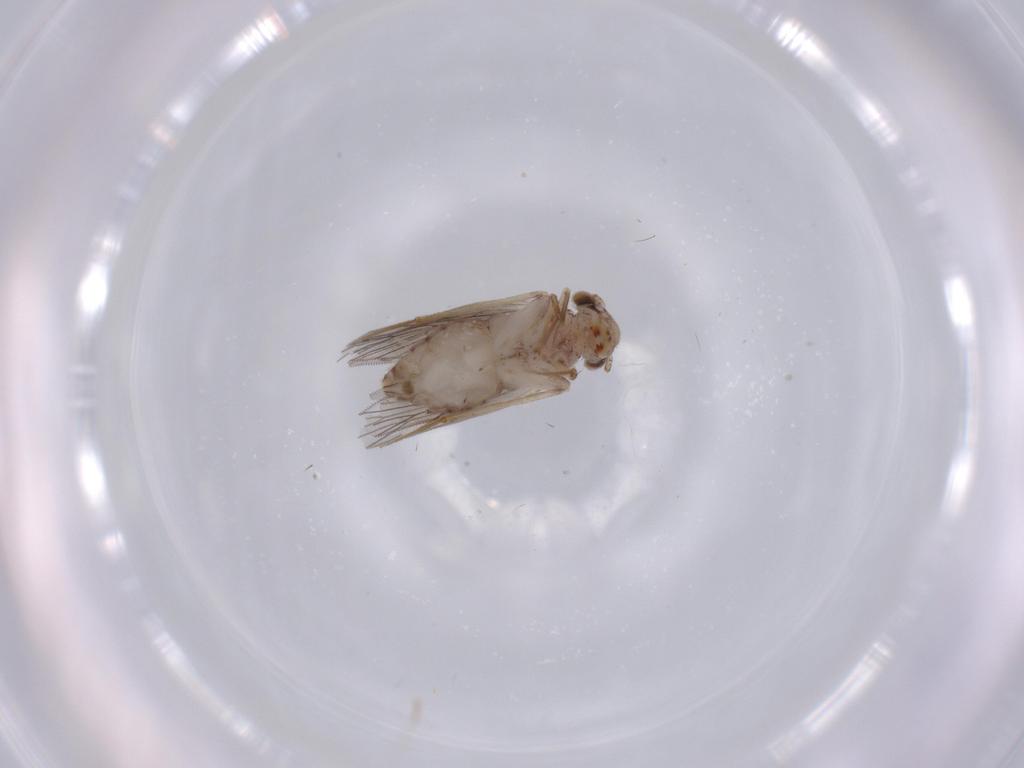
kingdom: Animalia
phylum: Arthropoda
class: Insecta
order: Psocodea
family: Lepidopsocidae
